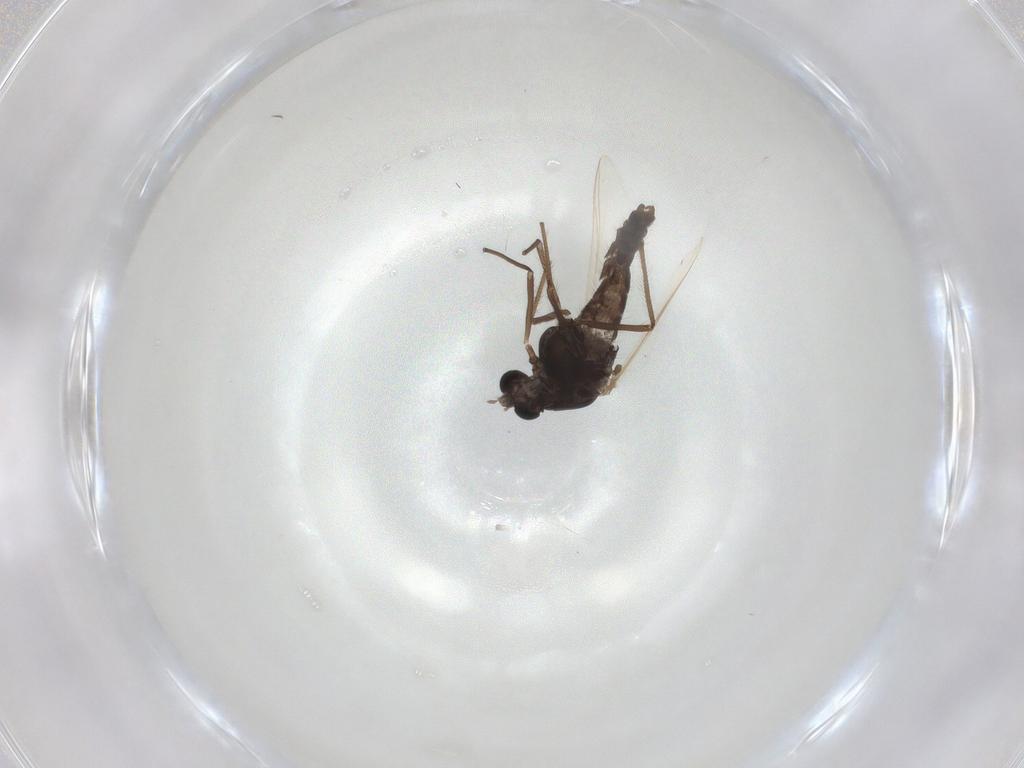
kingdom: Animalia
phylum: Arthropoda
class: Insecta
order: Diptera
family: Chironomidae
